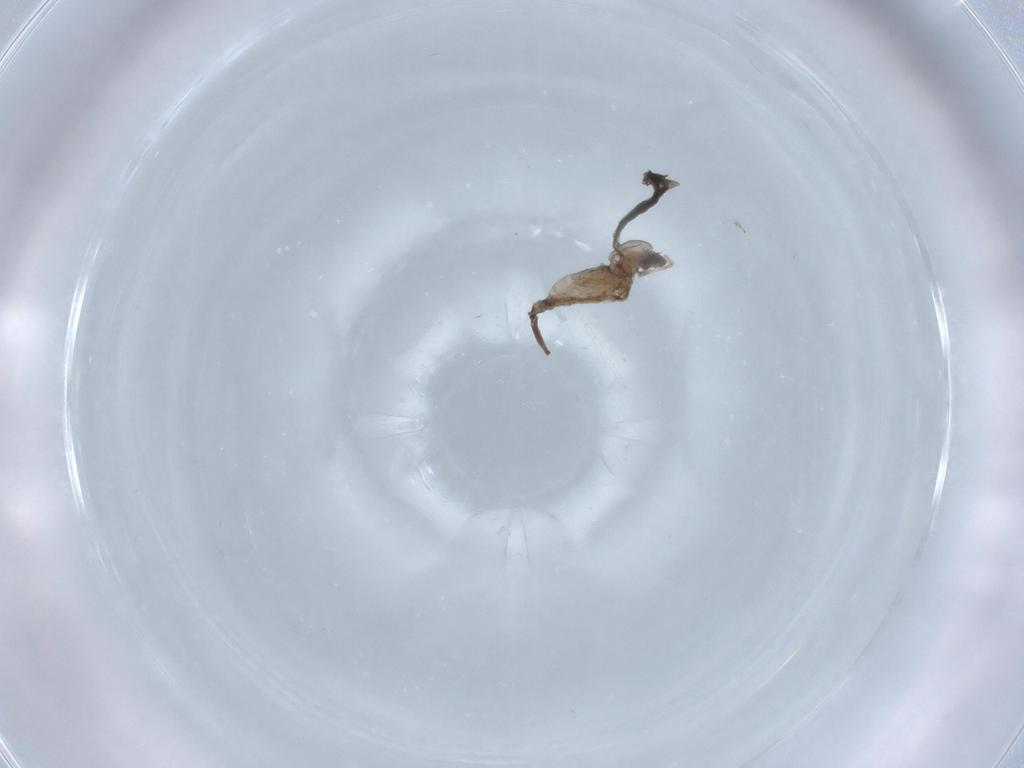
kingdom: Animalia
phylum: Arthropoda
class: Insecta
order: Diptera
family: Cecidomyiidae
